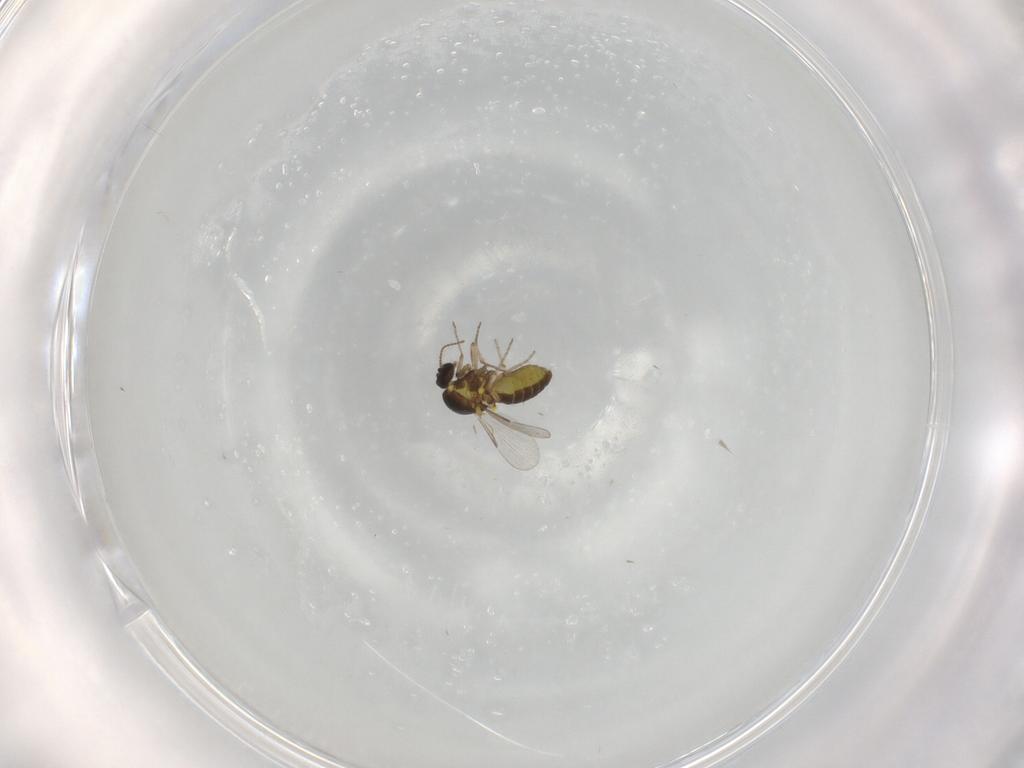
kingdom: Animalia
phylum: Arthropoda
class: Insecta
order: Diptera
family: Ceratopogonidae
